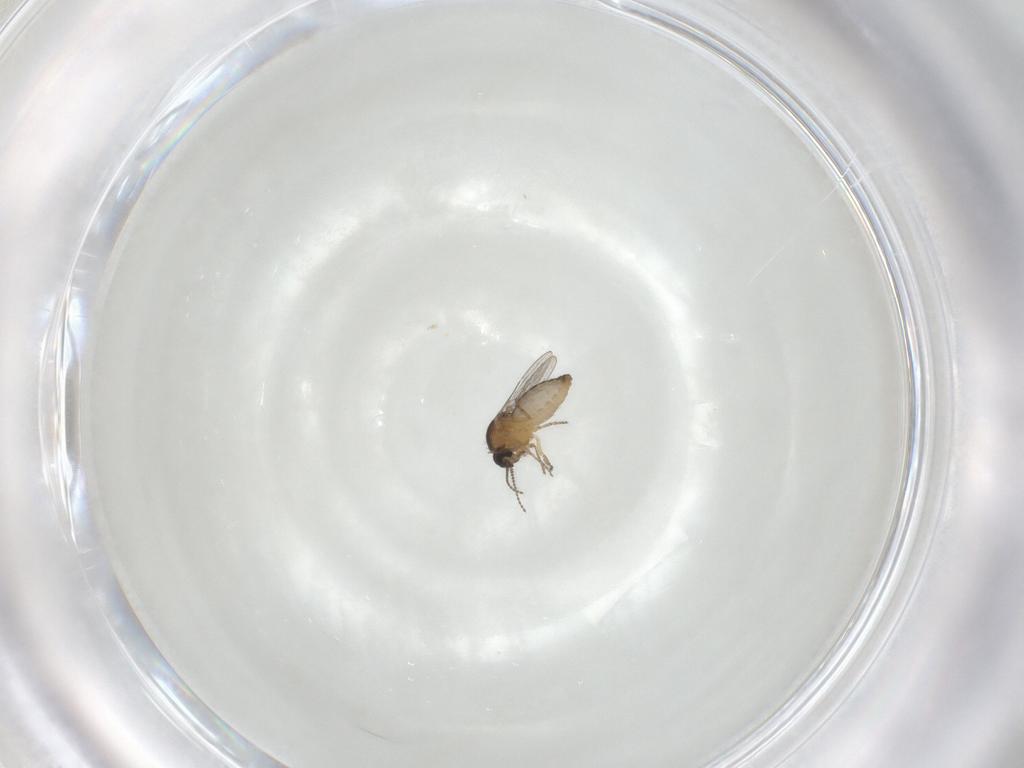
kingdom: Animalia
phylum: Arthropoda
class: Insecta
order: Diptera
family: Ceratopogonidae
